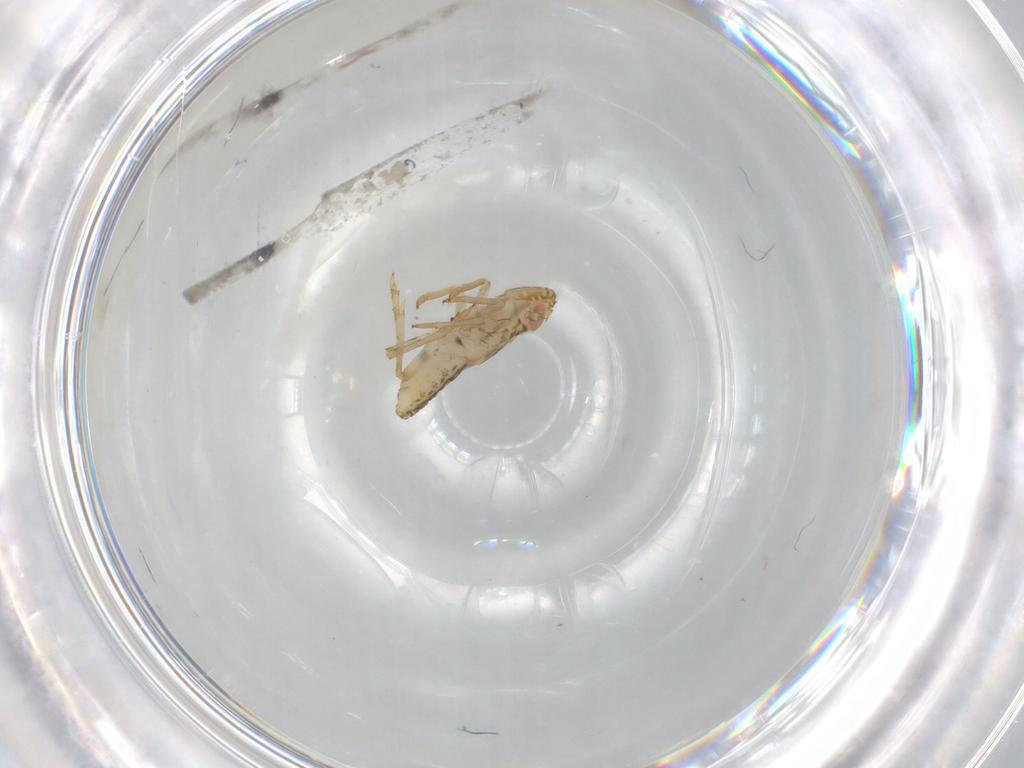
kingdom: Animalia
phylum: Arthropoda
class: Insecta
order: Hemiptera
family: Delphacidae
